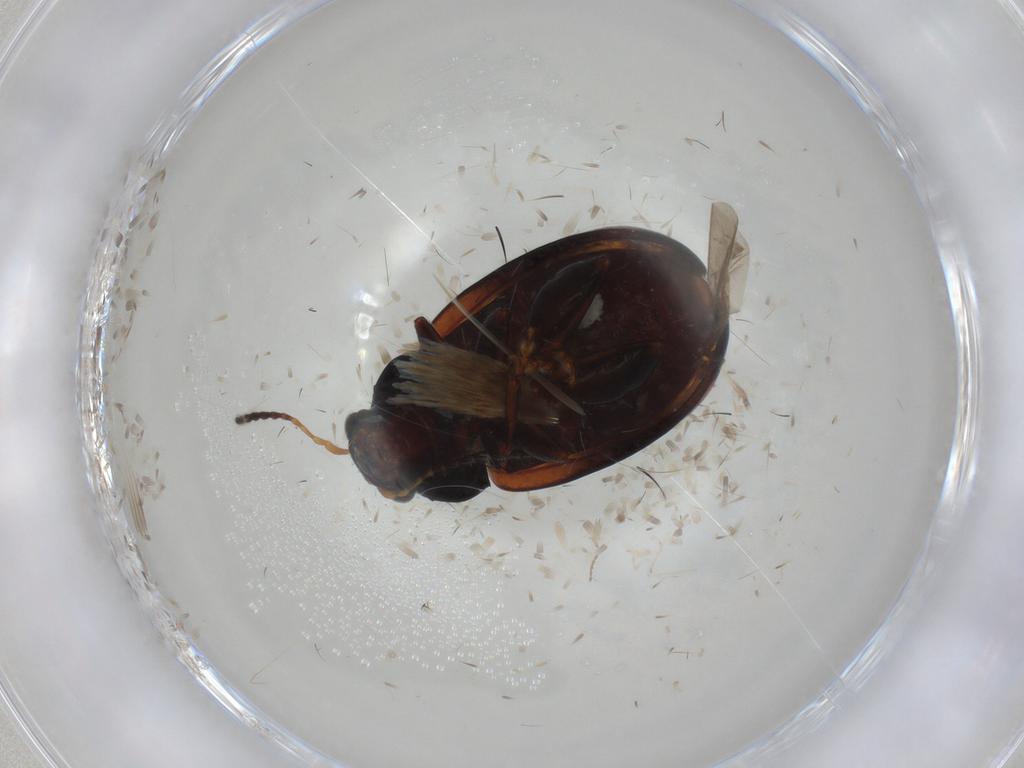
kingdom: Animalia
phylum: Arthropoda
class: Insecta
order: Coleoptera
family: Chrysomelidae
